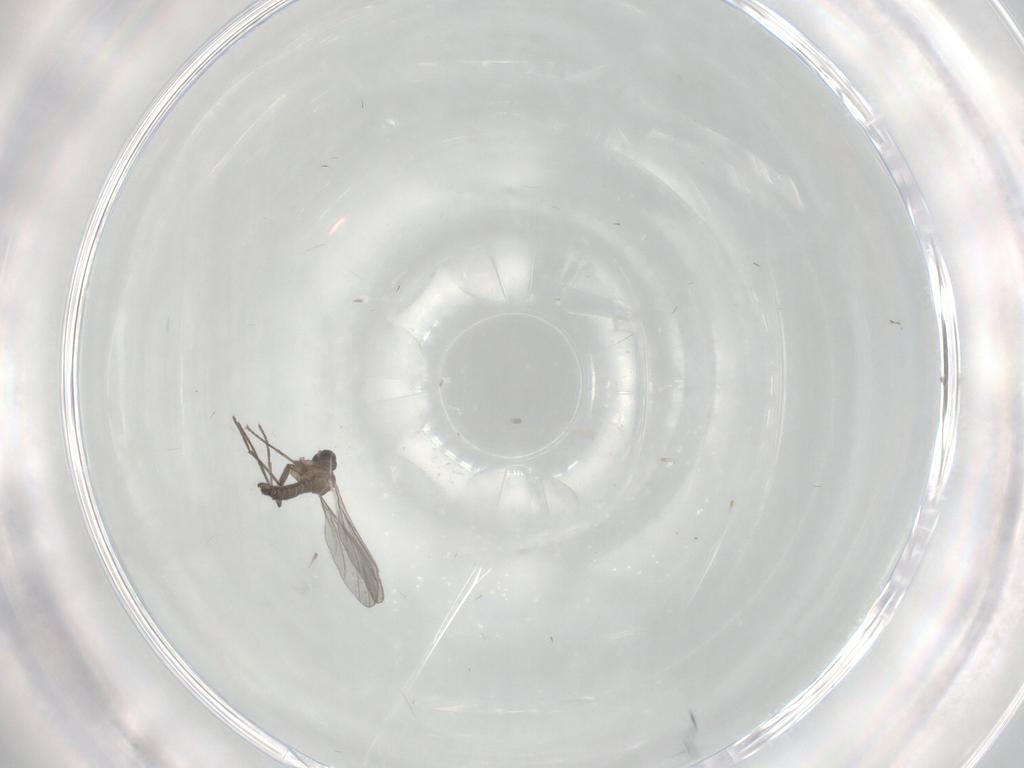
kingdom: Animalia
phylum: Arthropoda
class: Insecta
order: Diptera
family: Sciaridae
